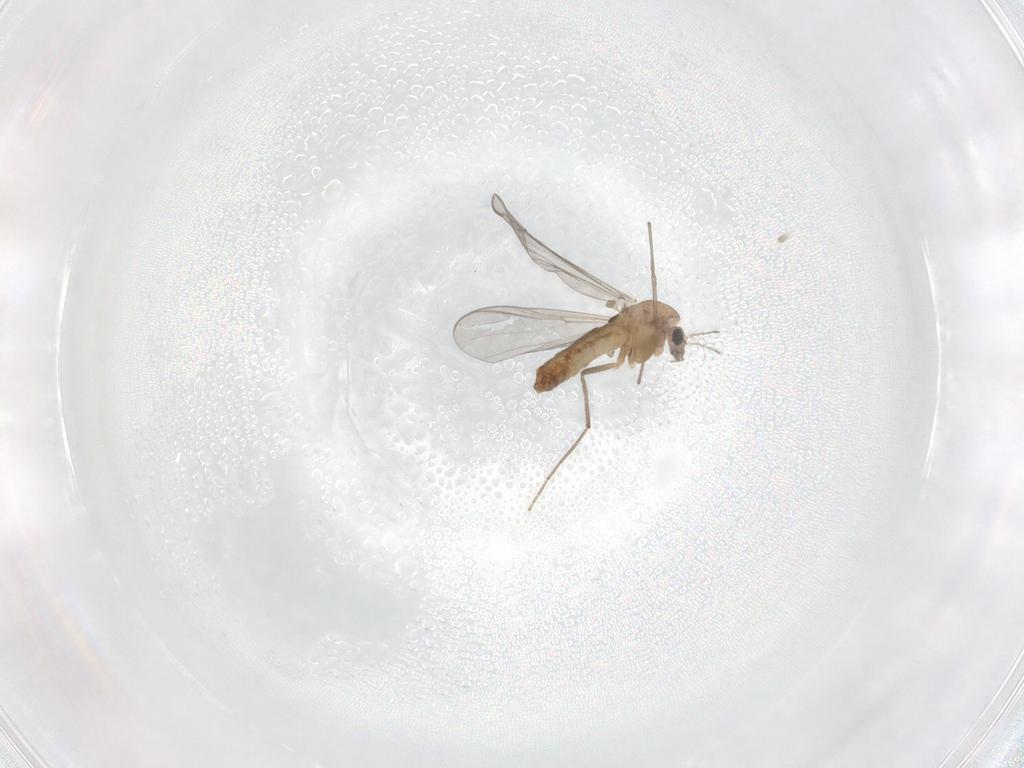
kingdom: Animalia
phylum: Arthropoda
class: Insecta
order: Diptera
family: Chironomidae
